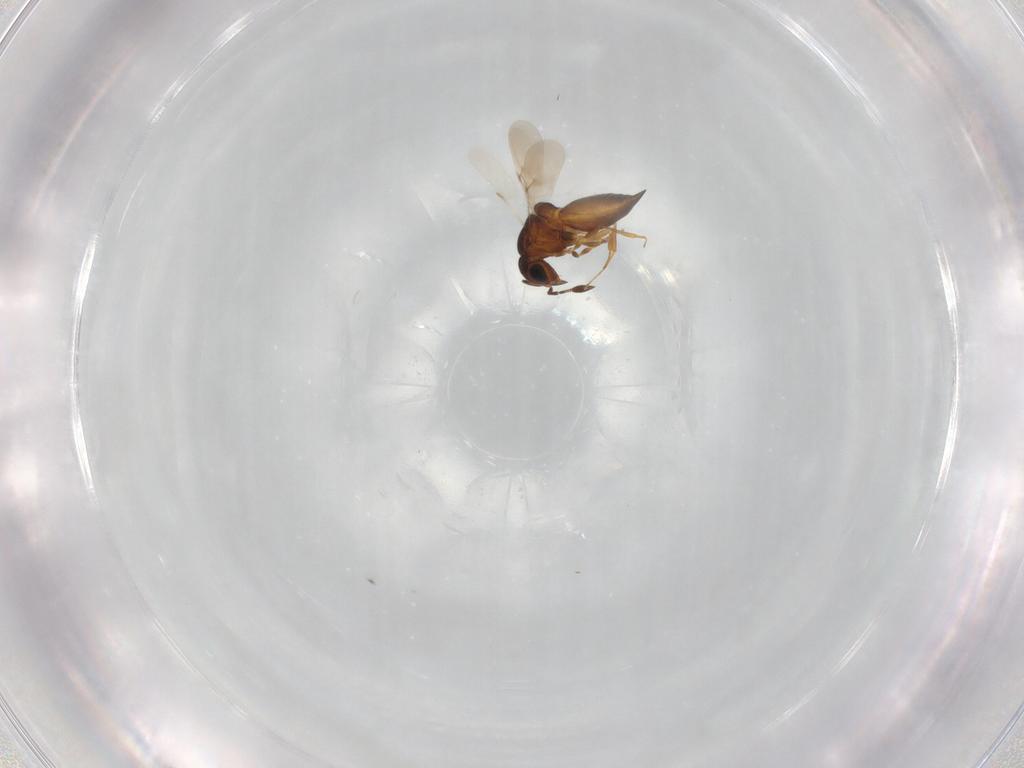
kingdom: Animalia
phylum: Arthropoda
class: Insecta
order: Hymenoptera
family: Scelionidae
